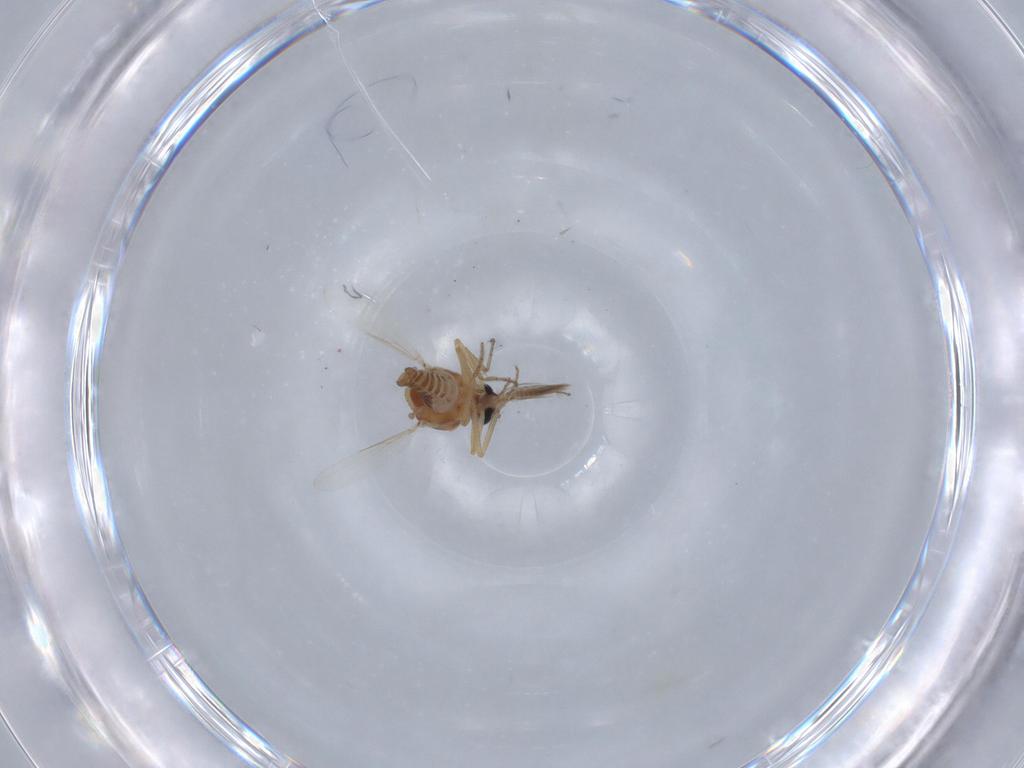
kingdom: Animalia
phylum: Arthropoda
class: Insecta
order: Diptera
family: Ceratopogonidae
